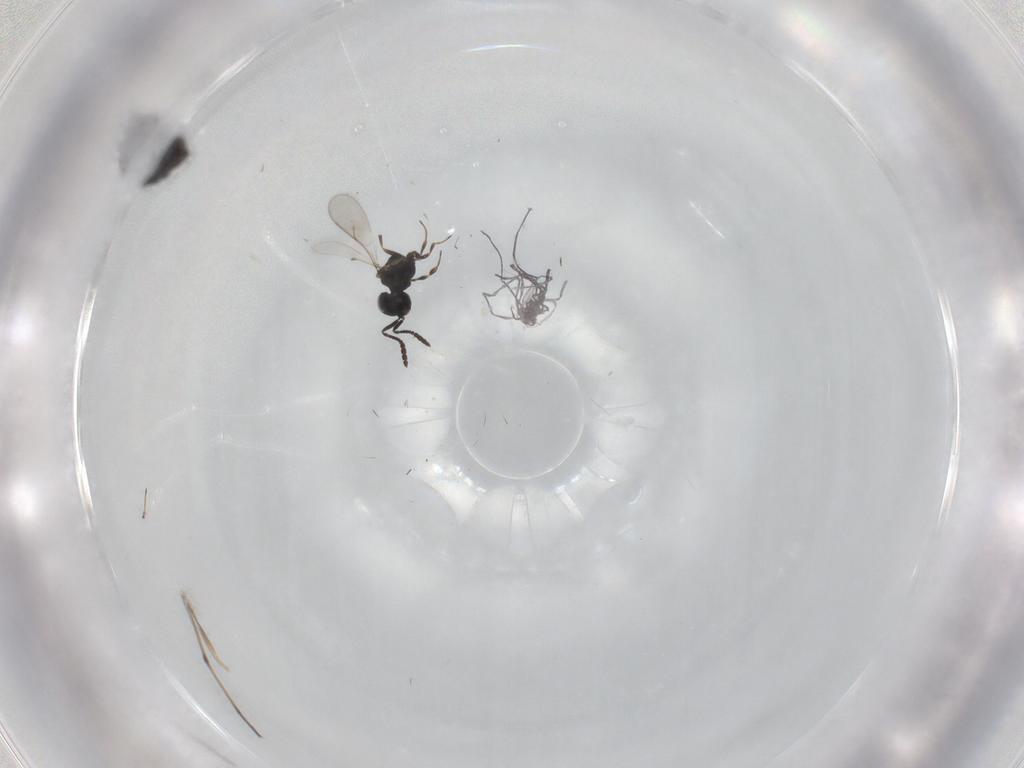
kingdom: Animalia
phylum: Arthropoda
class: Insecta
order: Hymenoptera
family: Scelionidae
